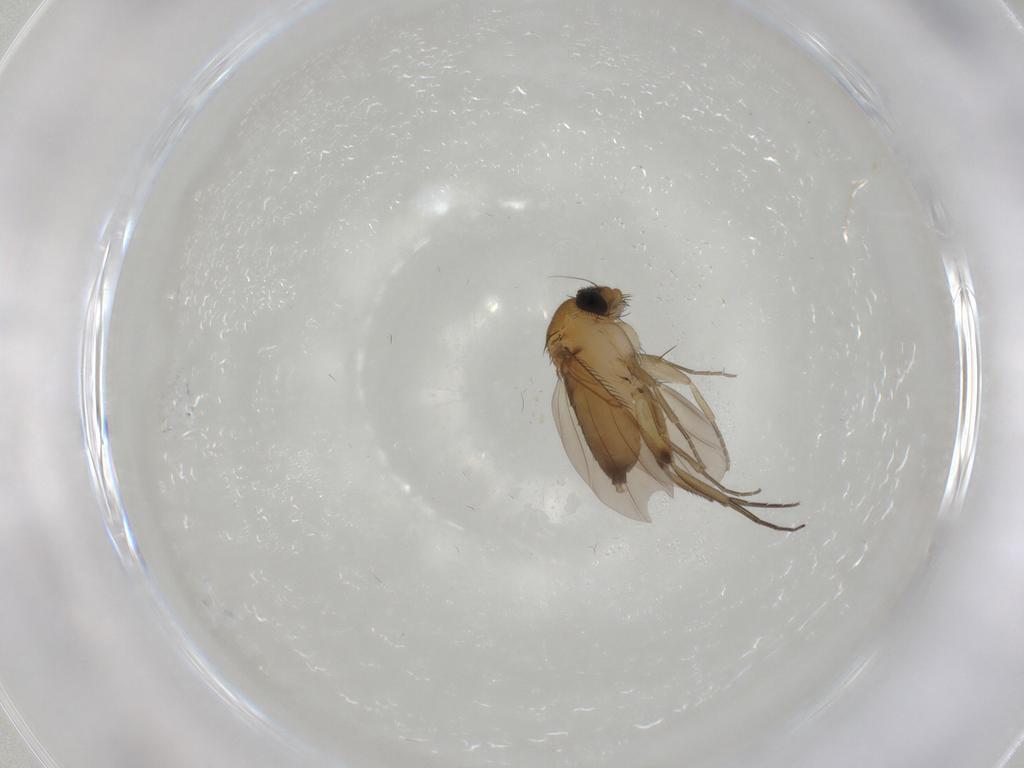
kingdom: Animalia
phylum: Arthropoda
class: Insecta
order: Diptera
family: Phoridae
